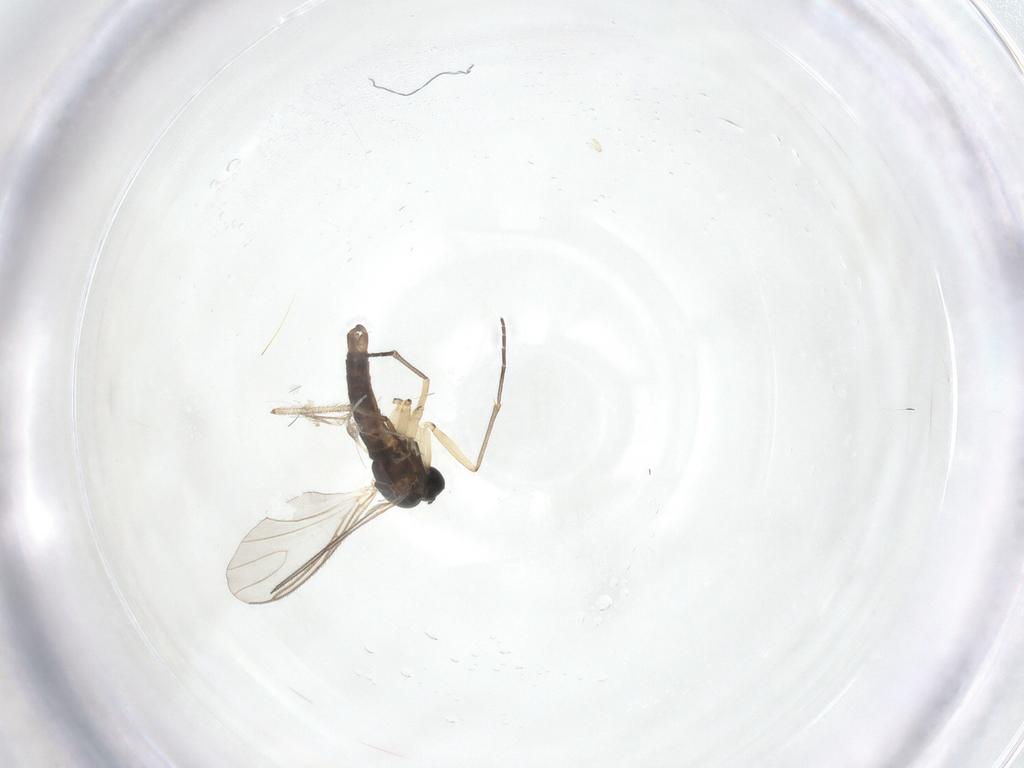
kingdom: Animalia
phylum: Arthropoda
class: Insecta
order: Diptera
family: Sciaridae
